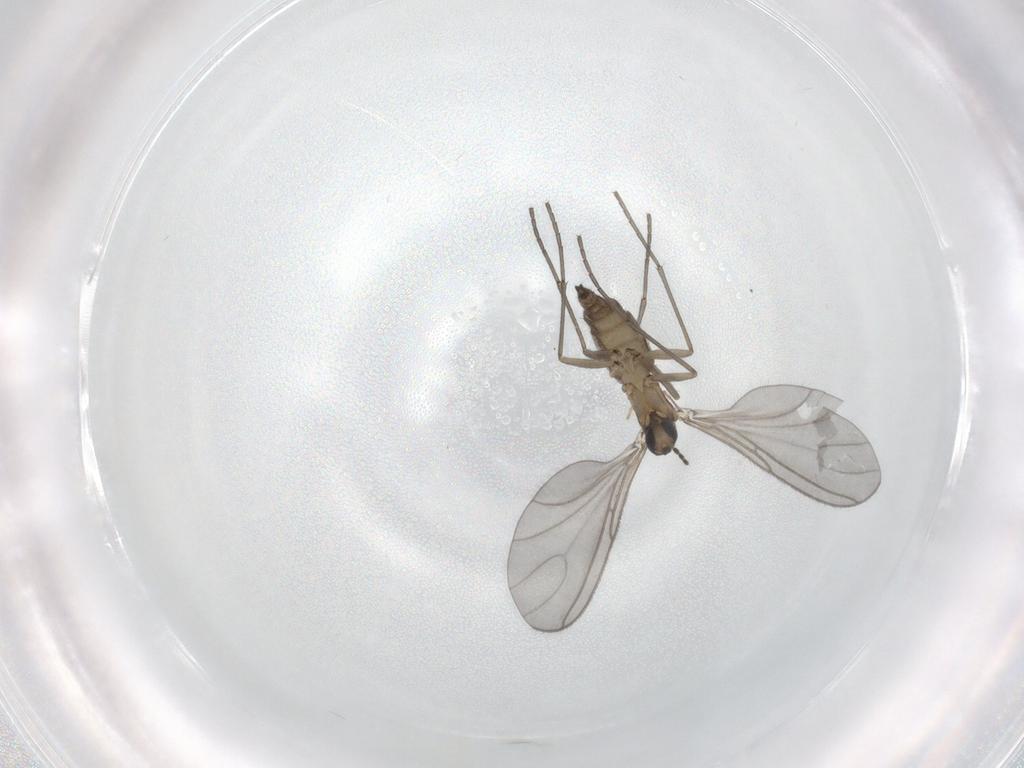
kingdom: Animalia
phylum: Arthropoda
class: Insecta
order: Diptera
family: Sciaridae
